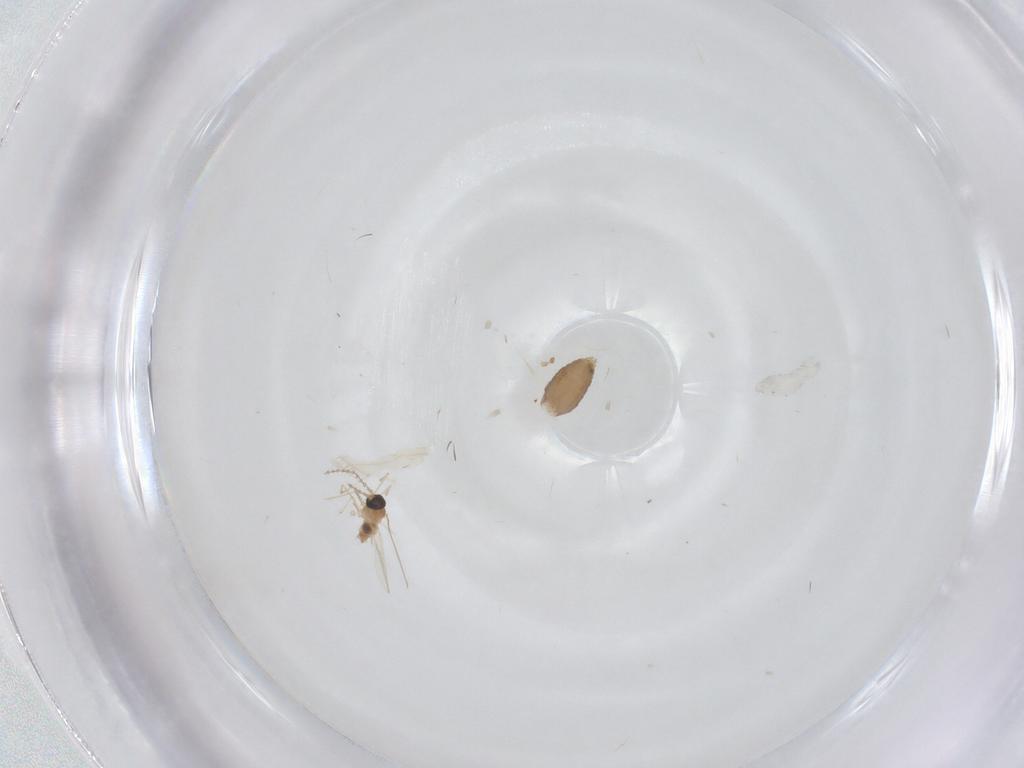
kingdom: Animalia
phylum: Arthropoda
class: Insecta
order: Diptera
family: Cecidomyiidae
